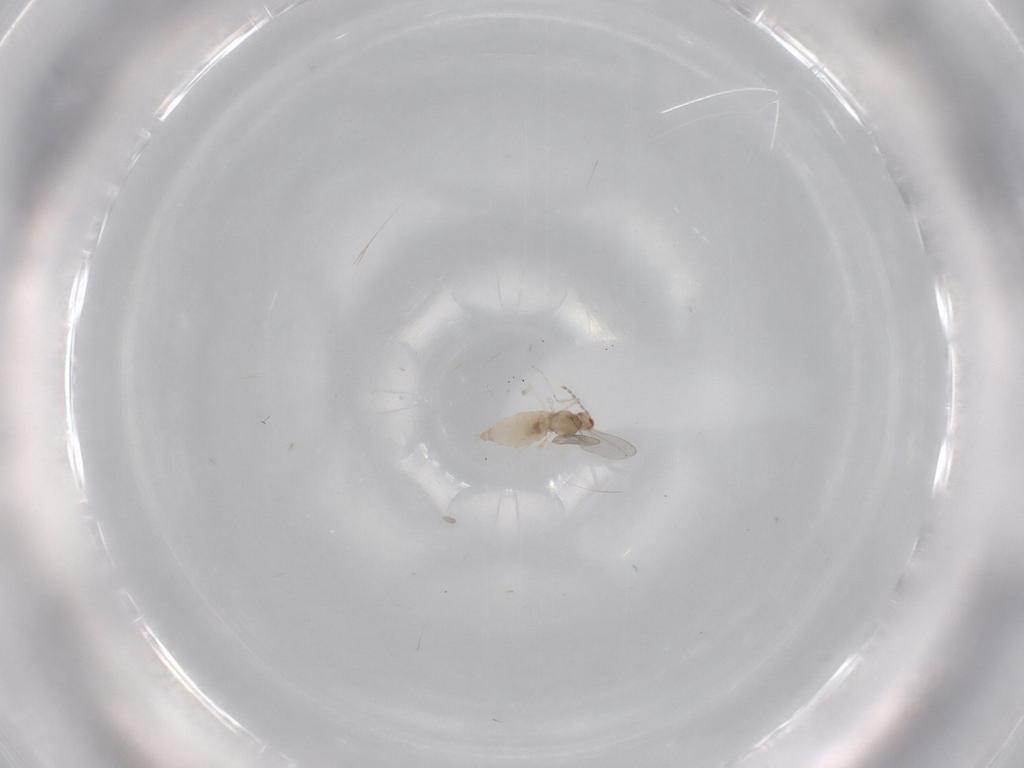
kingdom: Animalia
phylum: Arthropoda
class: Insecta
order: Diptera
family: Cecidomyiidae
